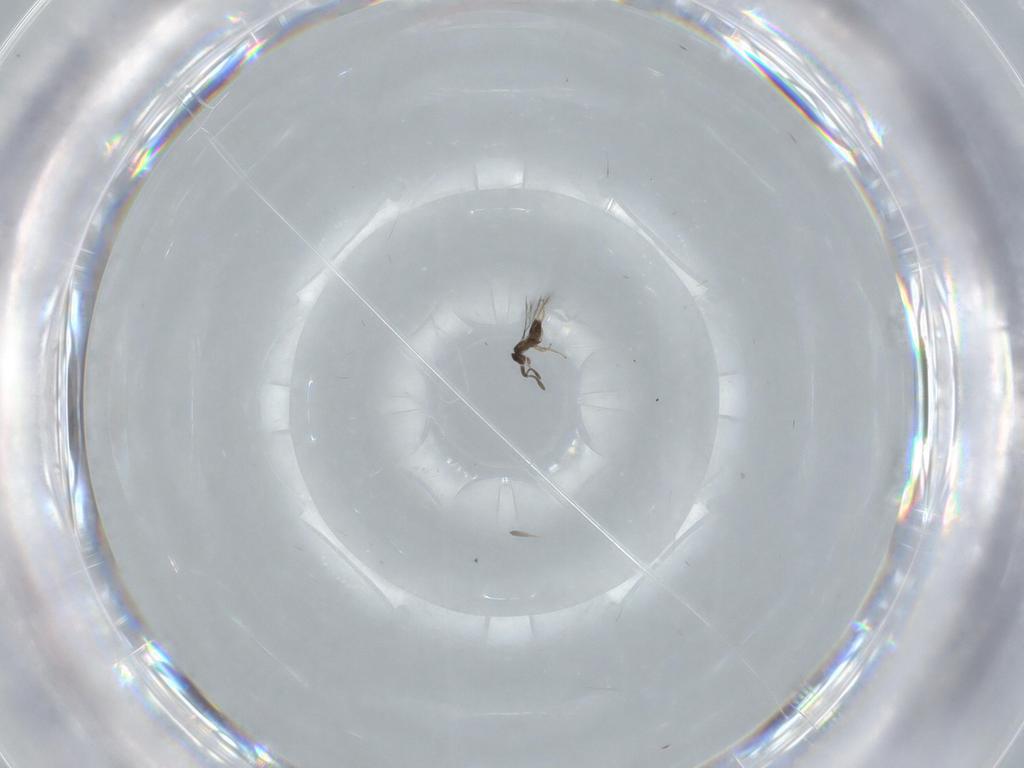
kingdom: Animalia
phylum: Arthropoda
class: Insecta
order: Hymenoptera
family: Mymaridae
